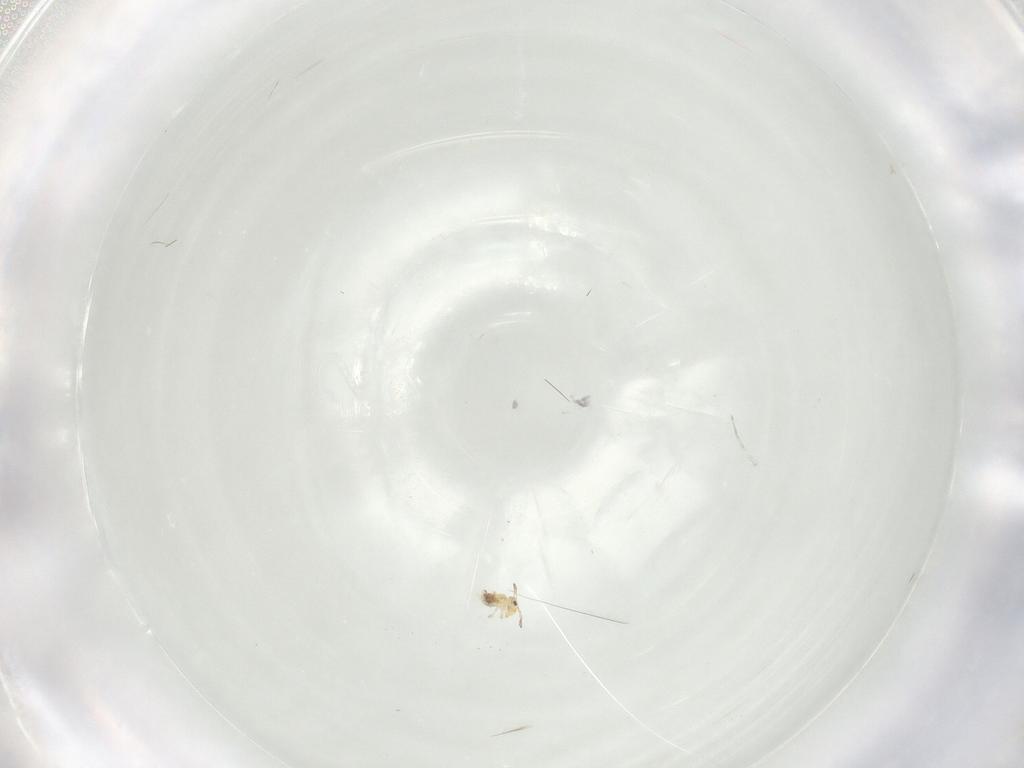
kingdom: Animalia
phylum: Arthropoda
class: Collembola
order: Symphypleona
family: Bourletiellidae
